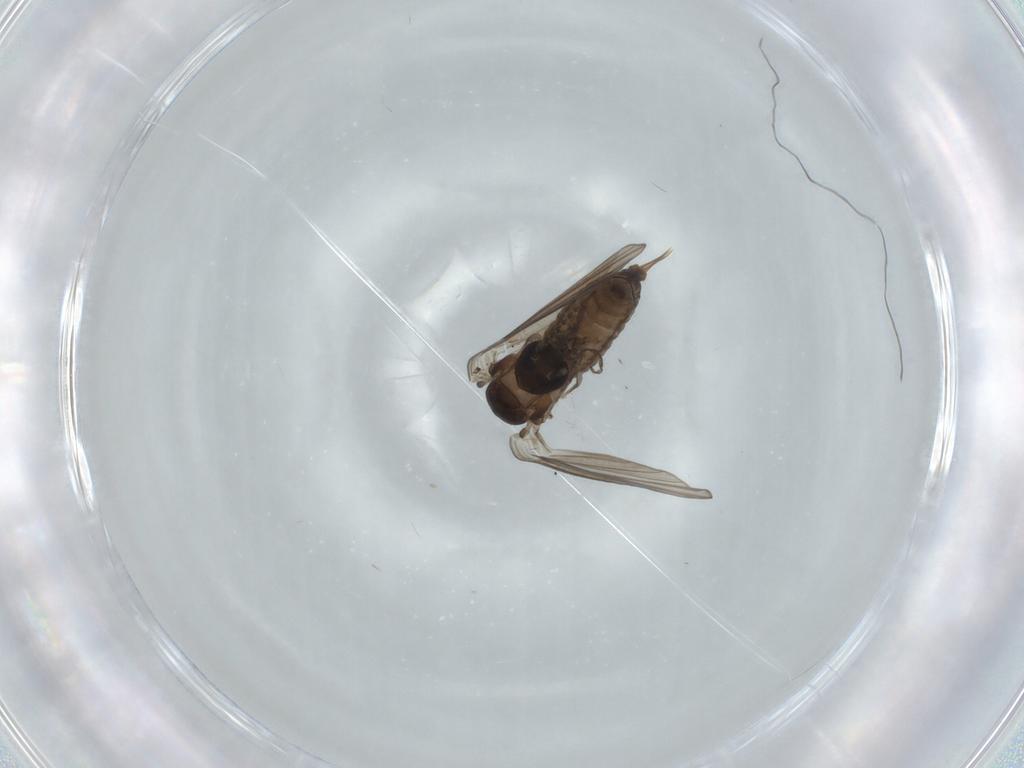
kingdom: Animalia
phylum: Arthropoda
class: Insecta
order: Diptera
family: Psychodidae
